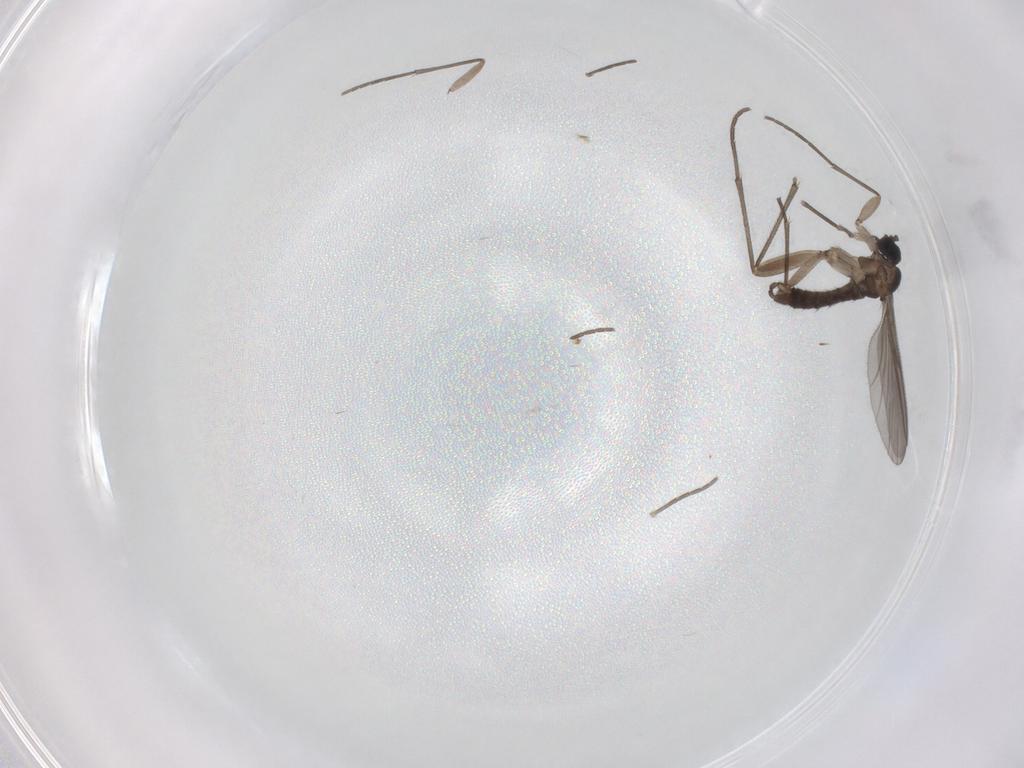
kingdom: Animalia
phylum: Arthropoda
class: Insecta
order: Diptera
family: Sciaridae
